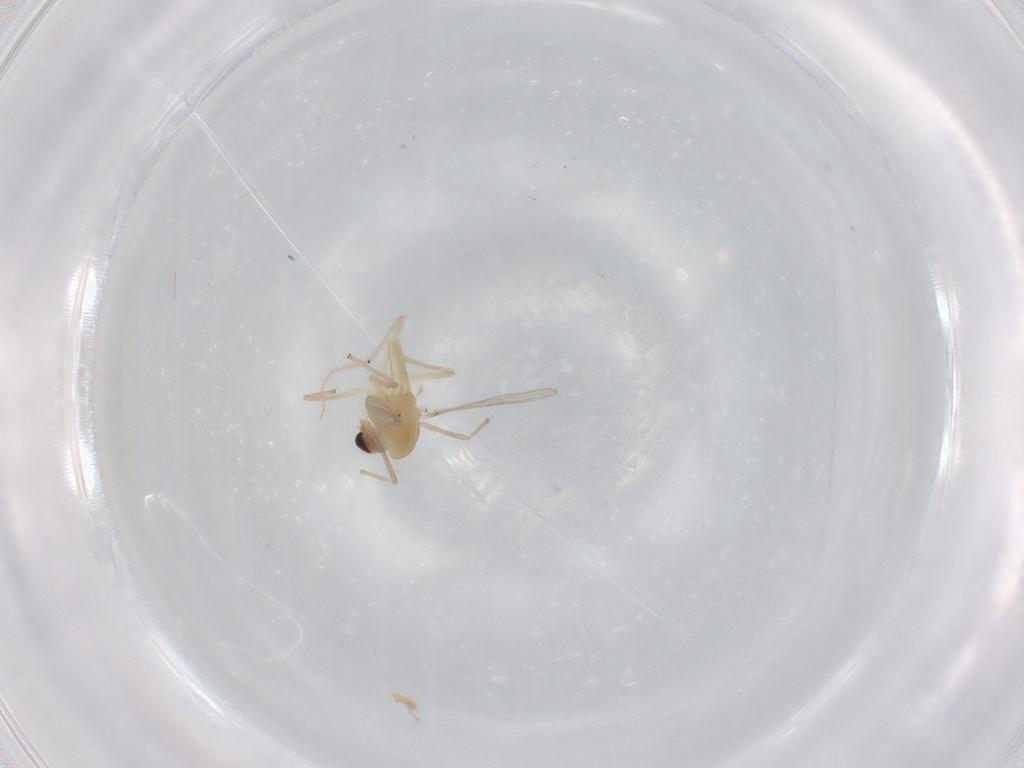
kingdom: Animalia
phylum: Arthropoda
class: Insecta
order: Diptera
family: Chironomidae
